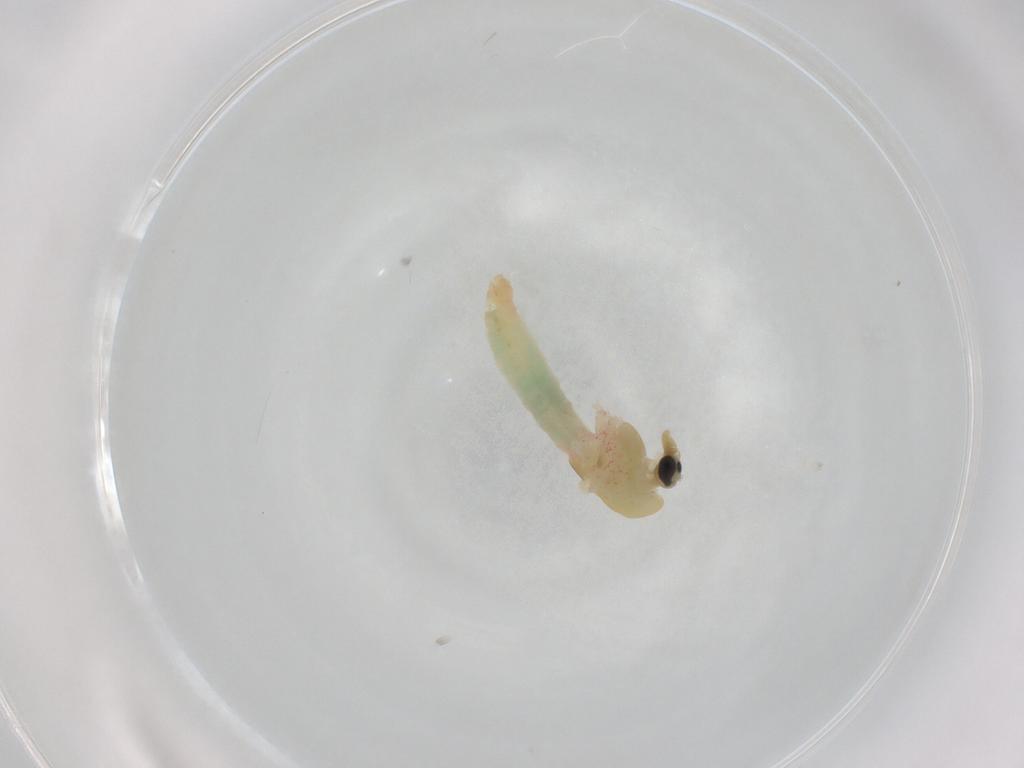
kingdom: Animalia
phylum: Arthropoda
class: Insecta
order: Diptera
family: Chironomidae
